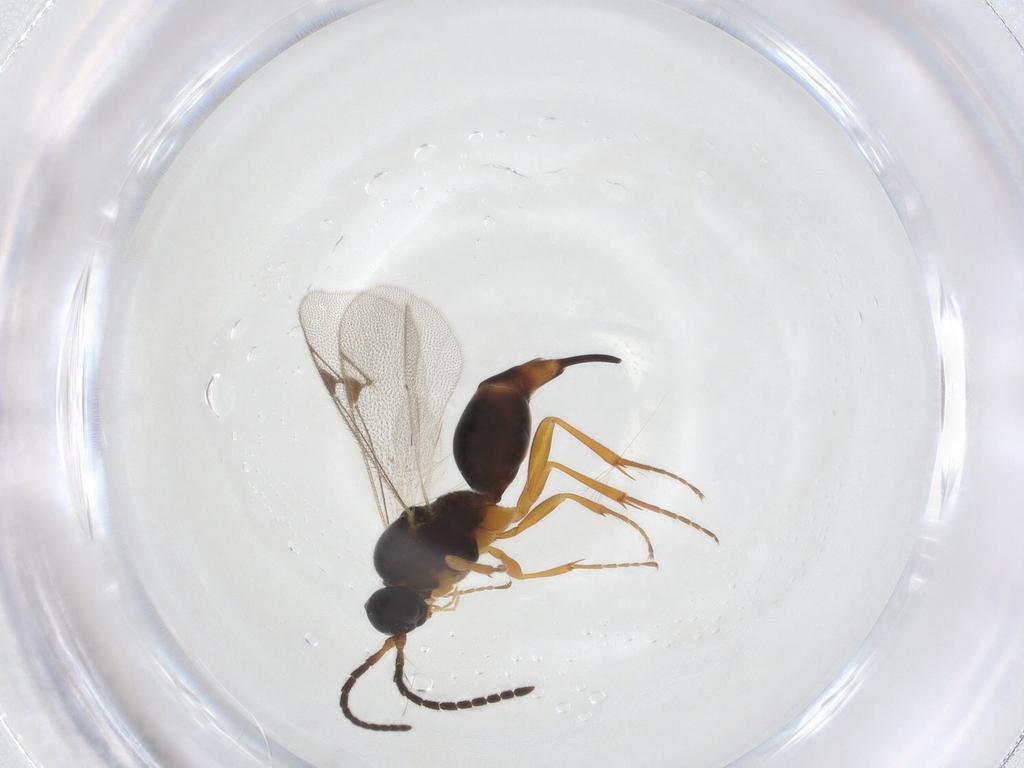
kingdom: Animalia
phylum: Arthropoda
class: Insecta
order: Hymenoptera
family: Proctotrupidae
